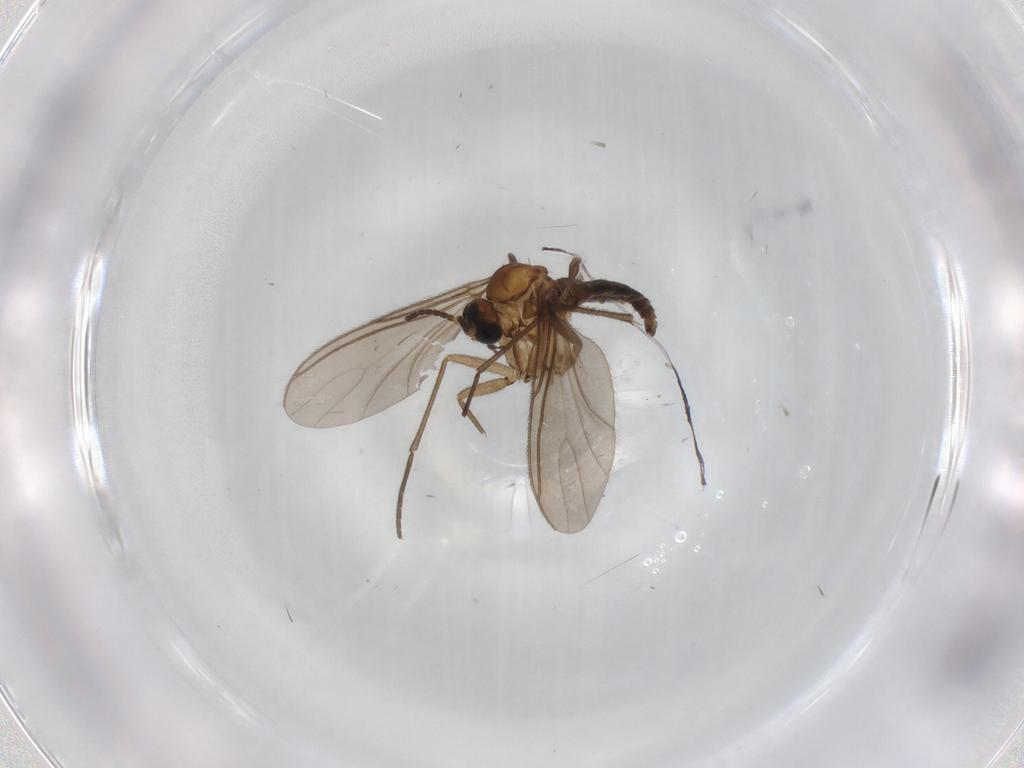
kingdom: Animalia
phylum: Arthropoda
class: Insecta
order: Diptera
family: Sciaridae
